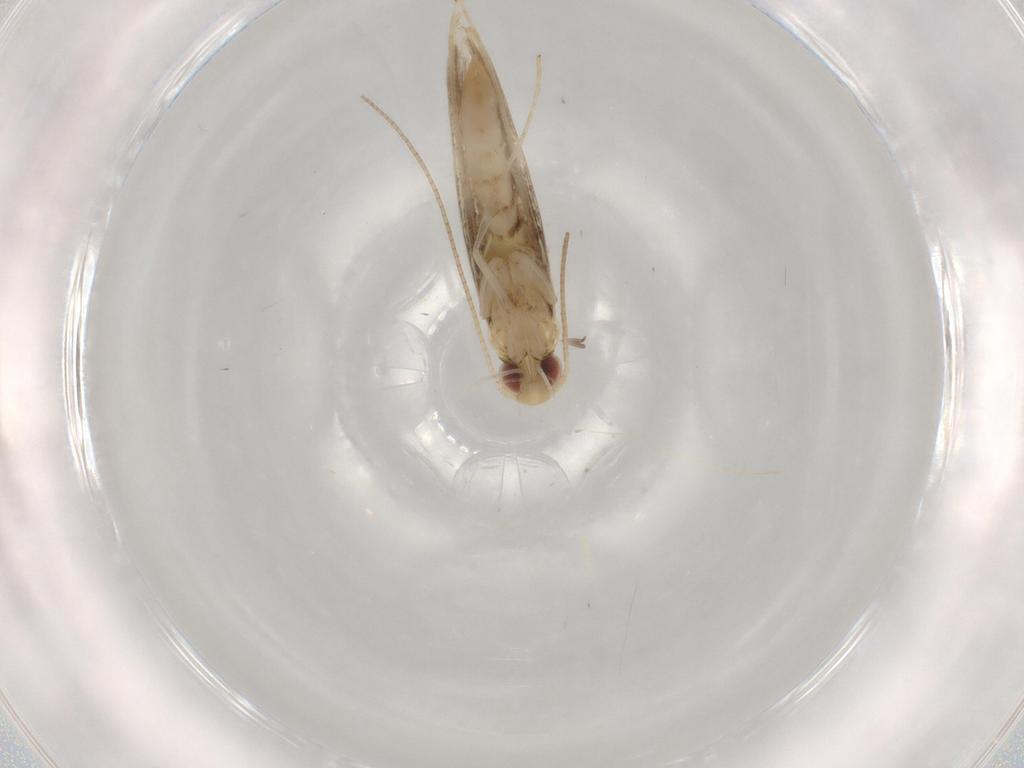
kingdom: Animalia
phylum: Arthropoda
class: Insecta
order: Lepidoptera
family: Gracillariidae
